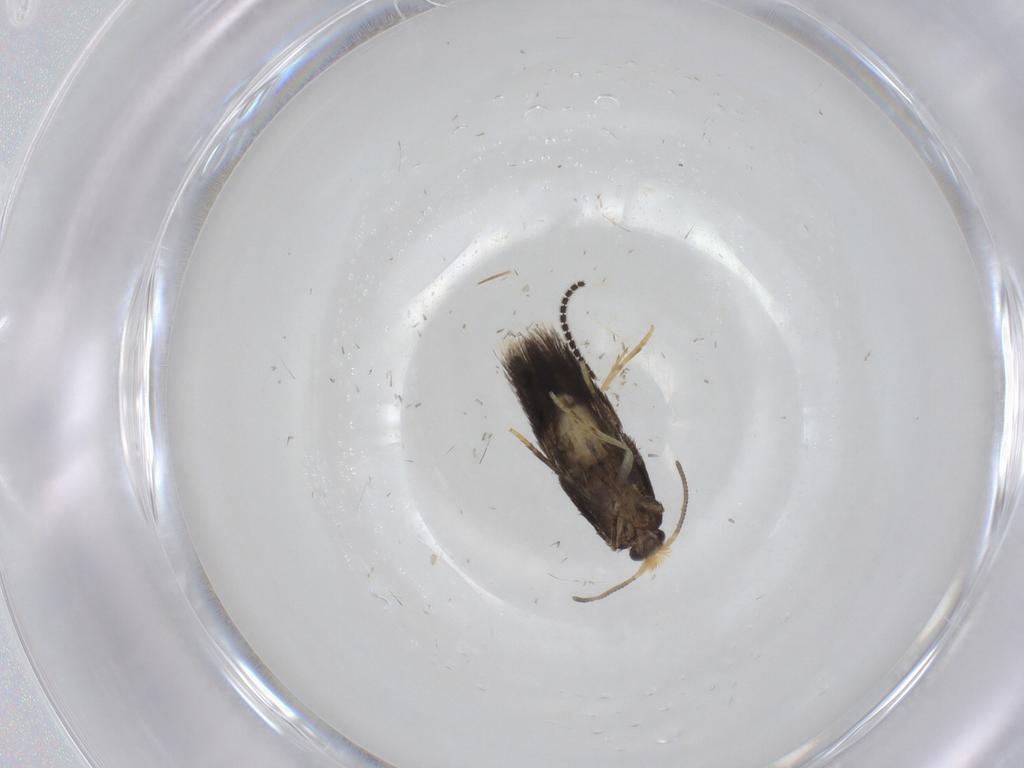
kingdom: Animalia
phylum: Arthropoda
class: Insecta
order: Lepidoptera
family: Nepticulidae
